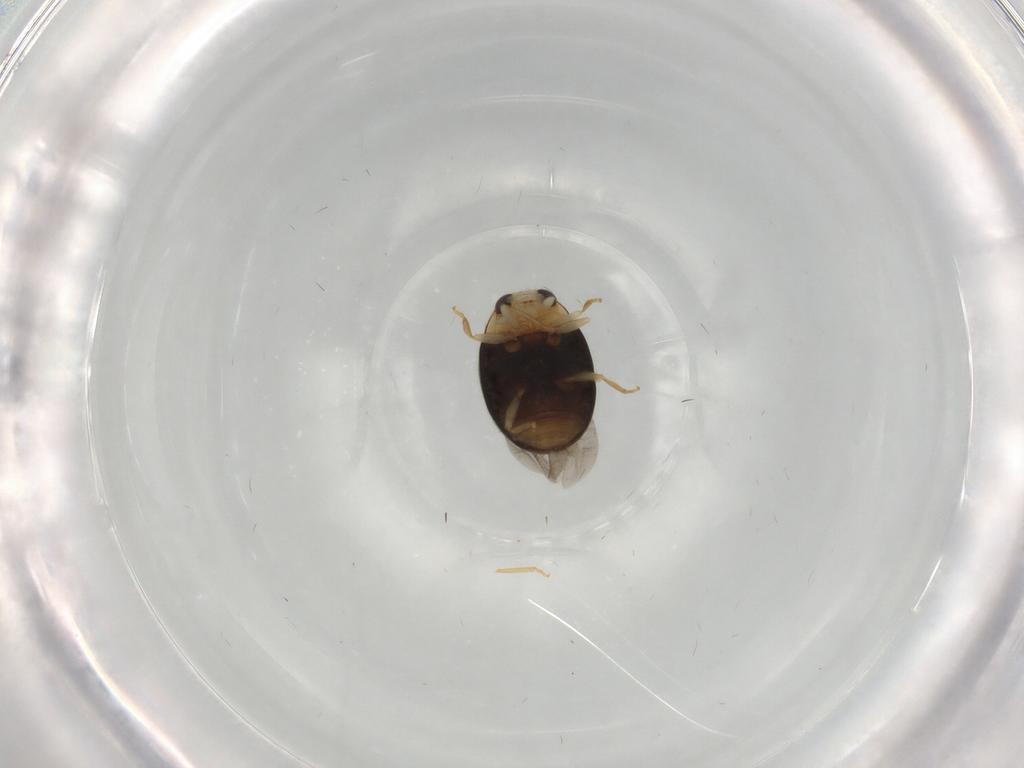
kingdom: Animalia
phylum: Arthropoda
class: Insecta
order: Coleoptera
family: Coccinellidae
